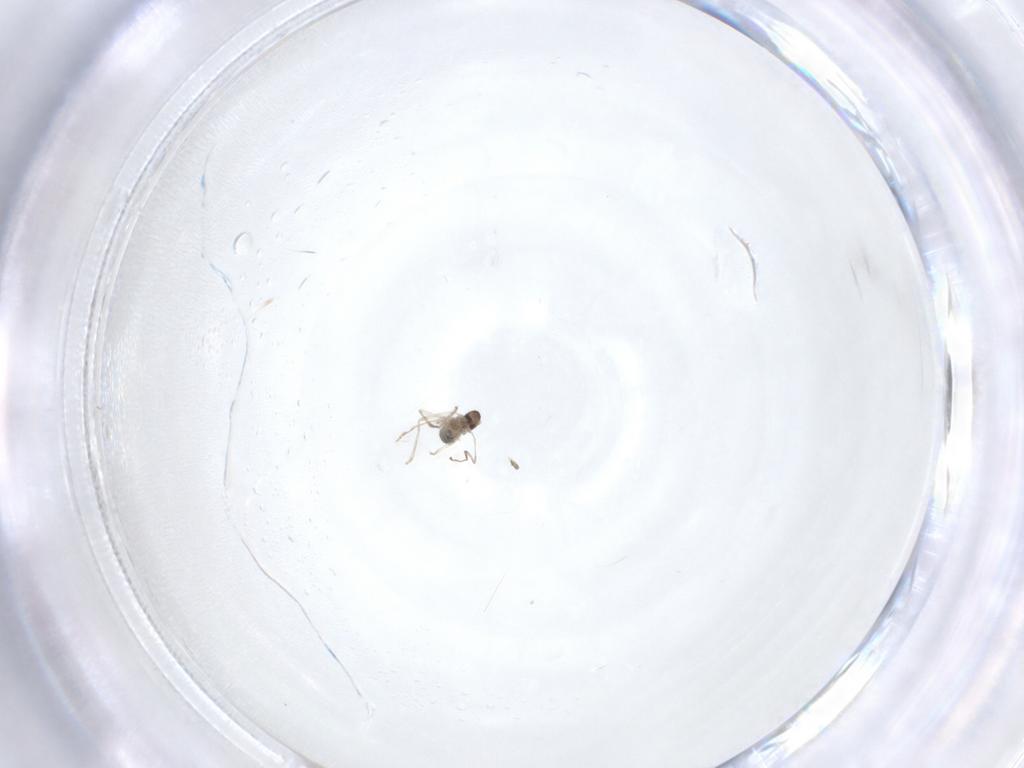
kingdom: Animalia
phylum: Arthropoda
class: Insecta
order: Diptera
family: Cecidomyiidae
